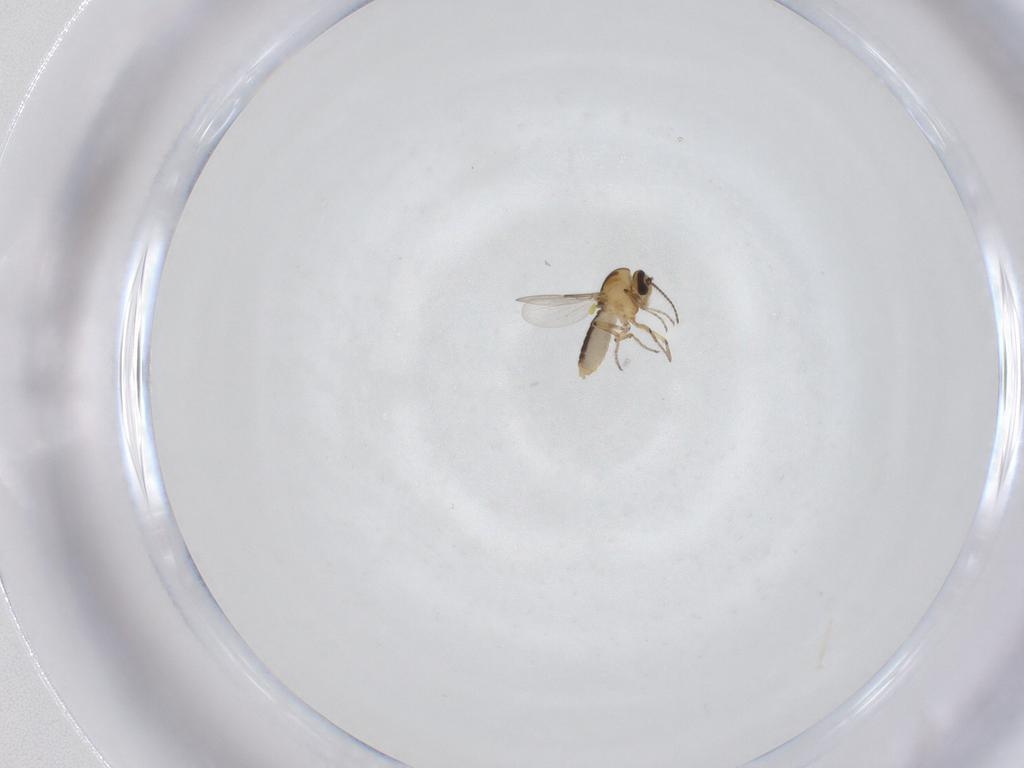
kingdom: Animalia
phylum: Arthropoda
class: Insecta
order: Diptera
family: Ceratopogonidae
